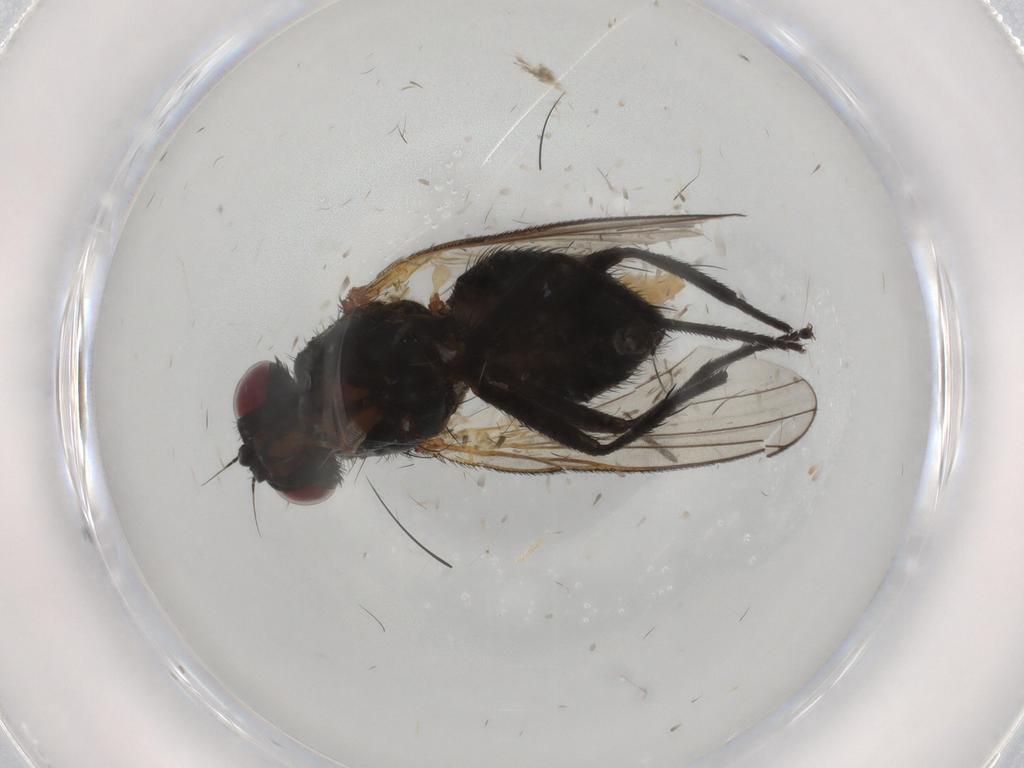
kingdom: Animalia
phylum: Arthropoda
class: Insecta
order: Diptera
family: Fannia
